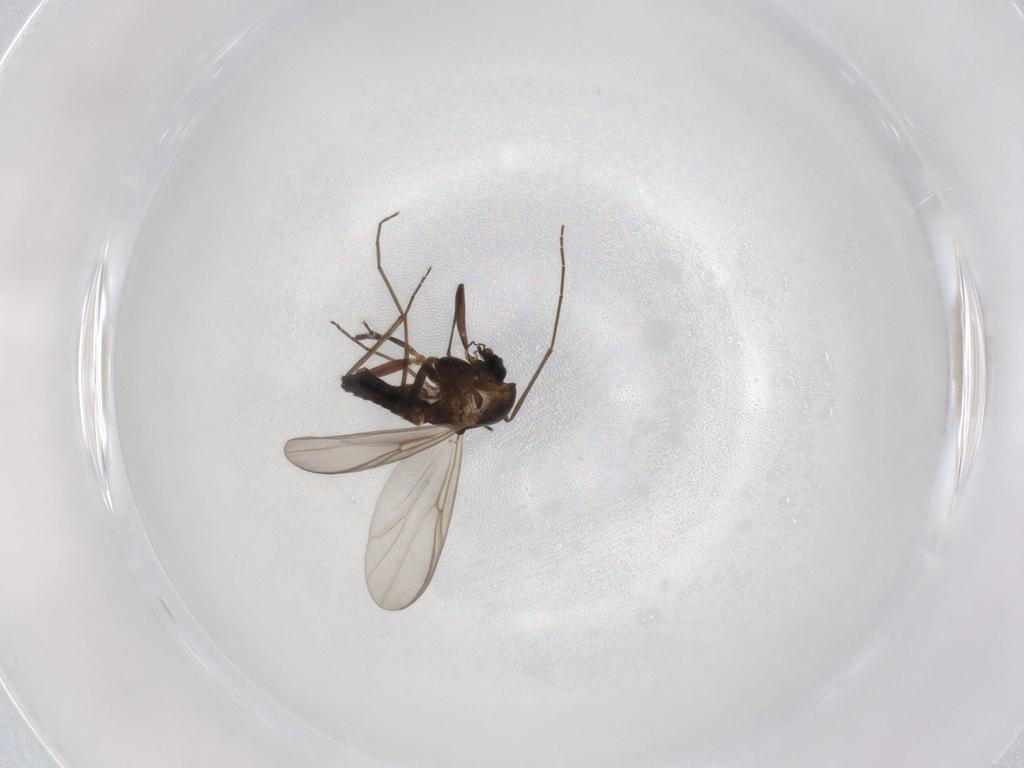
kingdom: Animalia
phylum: Arthropoda
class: Insecta
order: Diptera
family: Chironomidae
